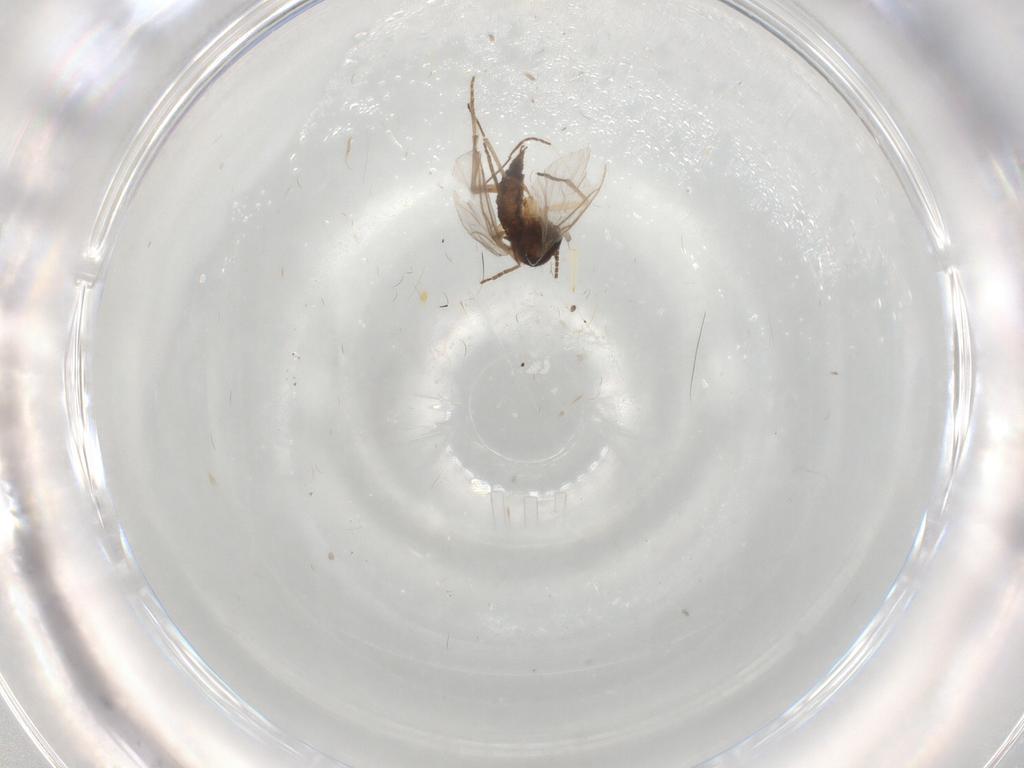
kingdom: Animalia
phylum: Arthropoda
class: Insecta
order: Diptera
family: Sciaridae
